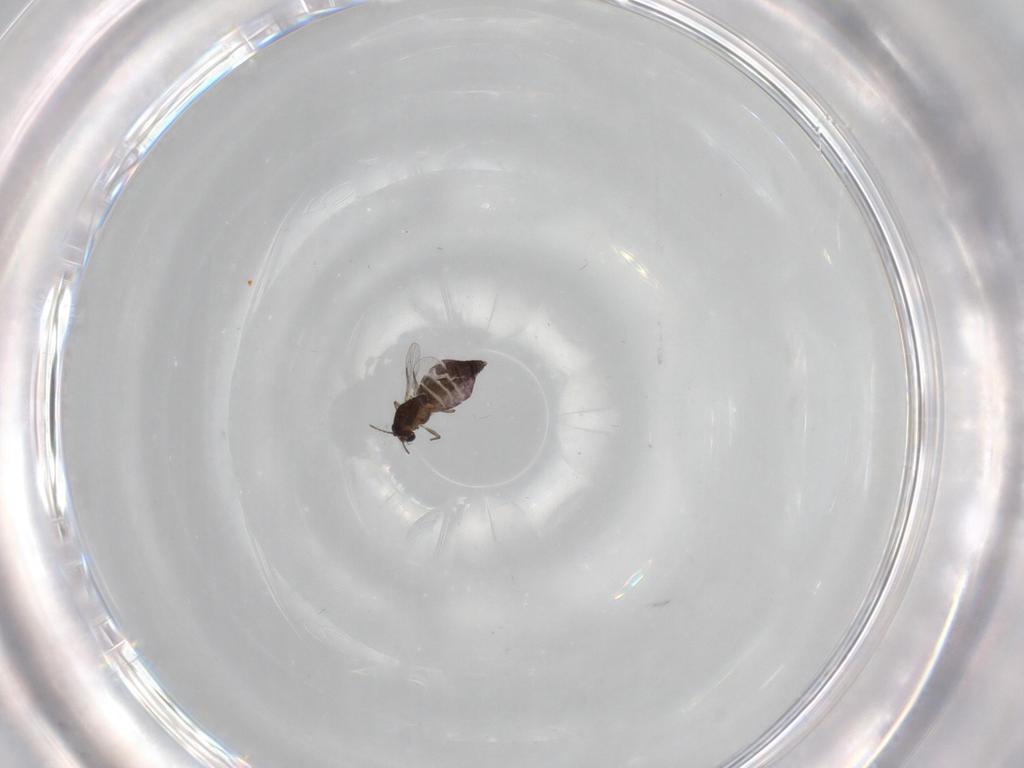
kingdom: Animalia
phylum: Arthropoda
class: Insecta
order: Diptera
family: Chironomidae
